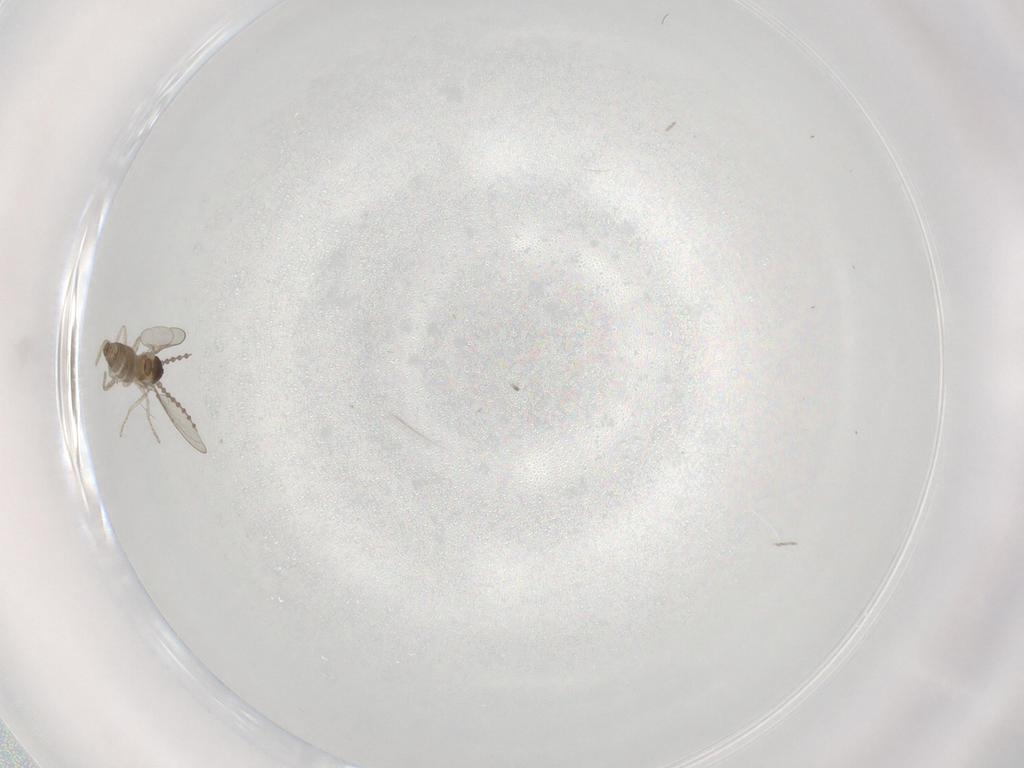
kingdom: Animalia
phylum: Arthropoda
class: Insecta
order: Diptera
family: Cecidomyiidae
